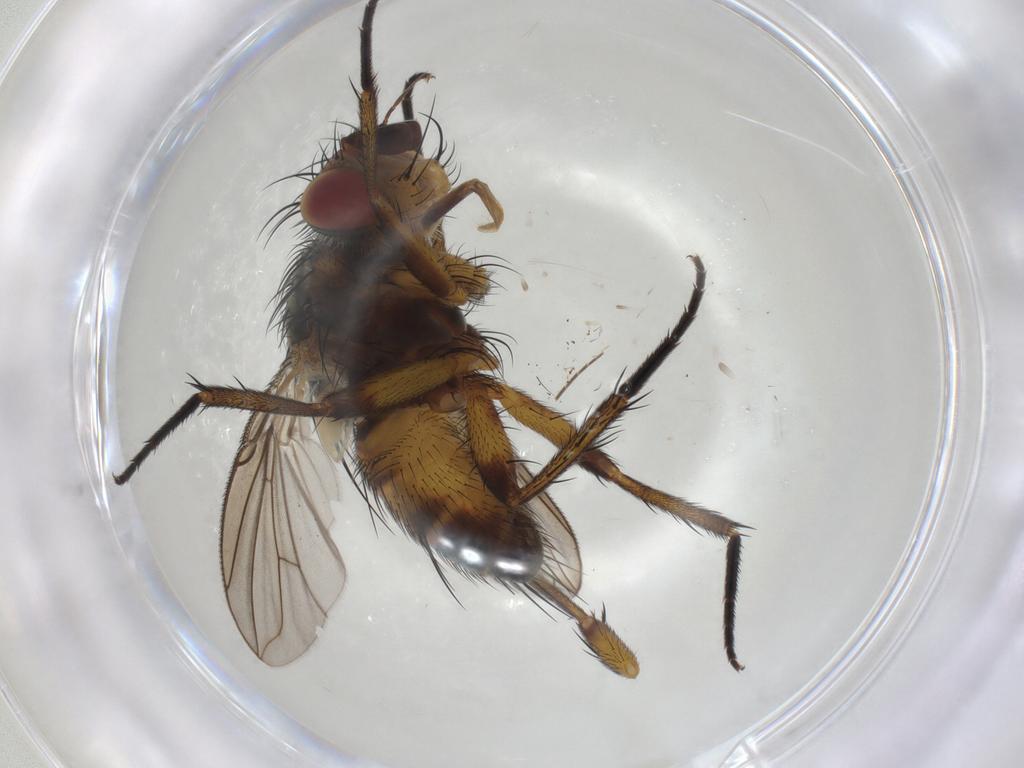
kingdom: Animalia
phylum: Arthropoda
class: Insecta
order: Diptera
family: Tachinidae
